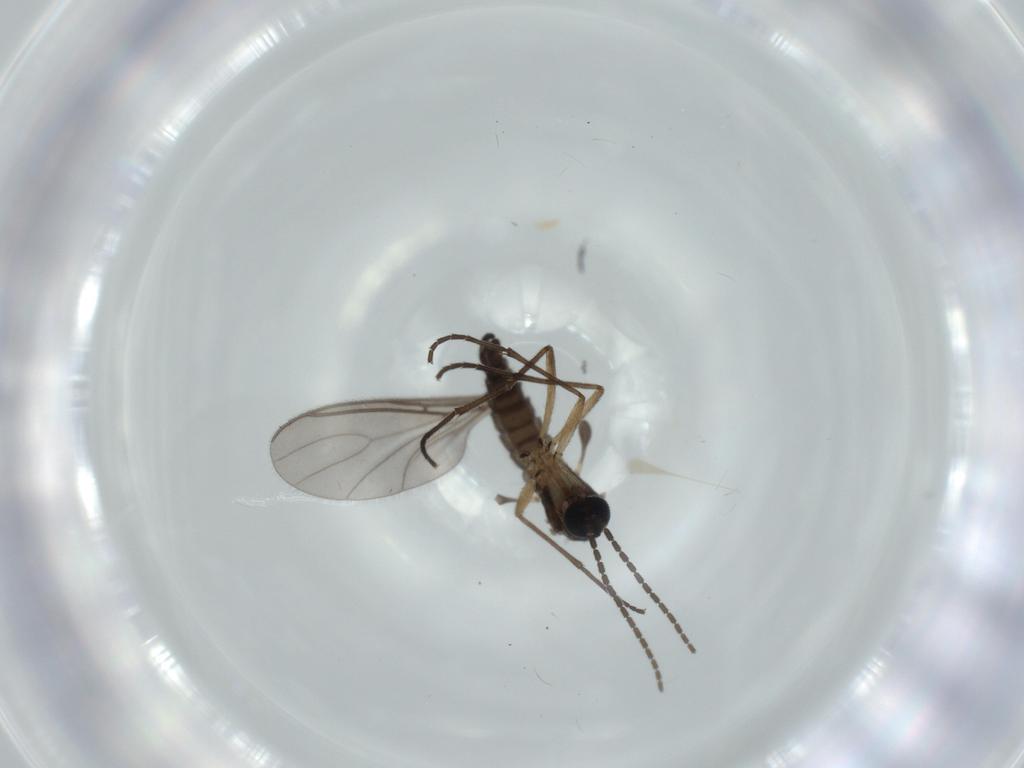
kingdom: Animalia
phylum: Arthropoda
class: Insecta
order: Diptera
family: Sciaridae
